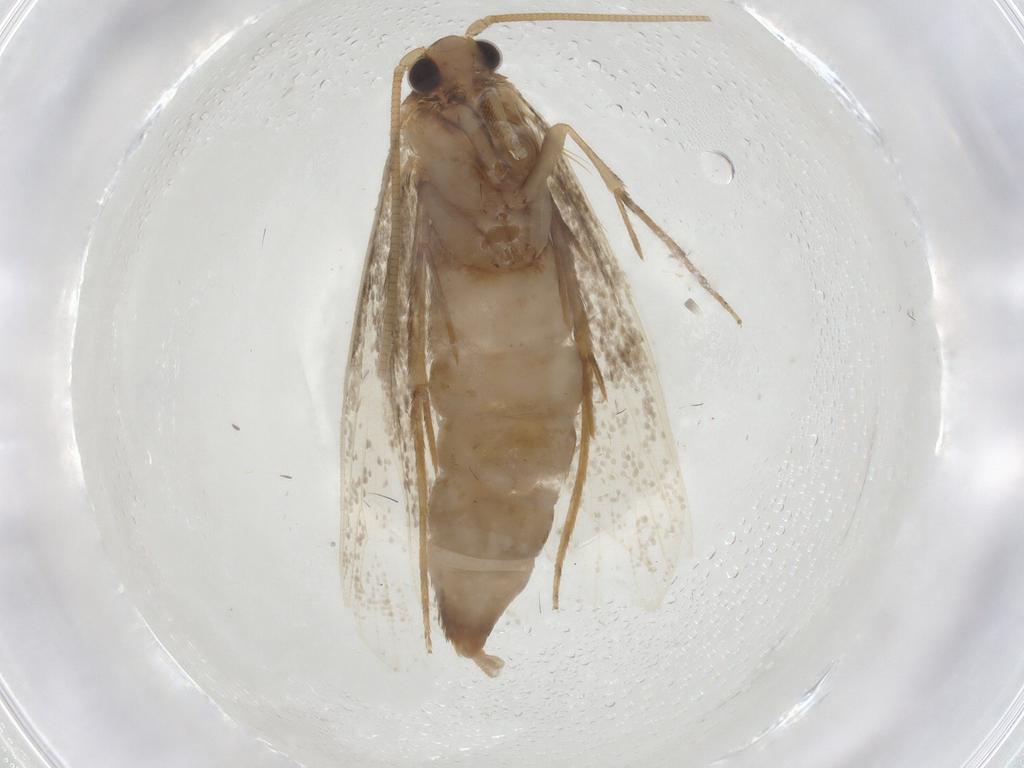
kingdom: Animalia
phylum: Arthropoda
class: Insecta
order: Lepidoptera
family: Tineidae
